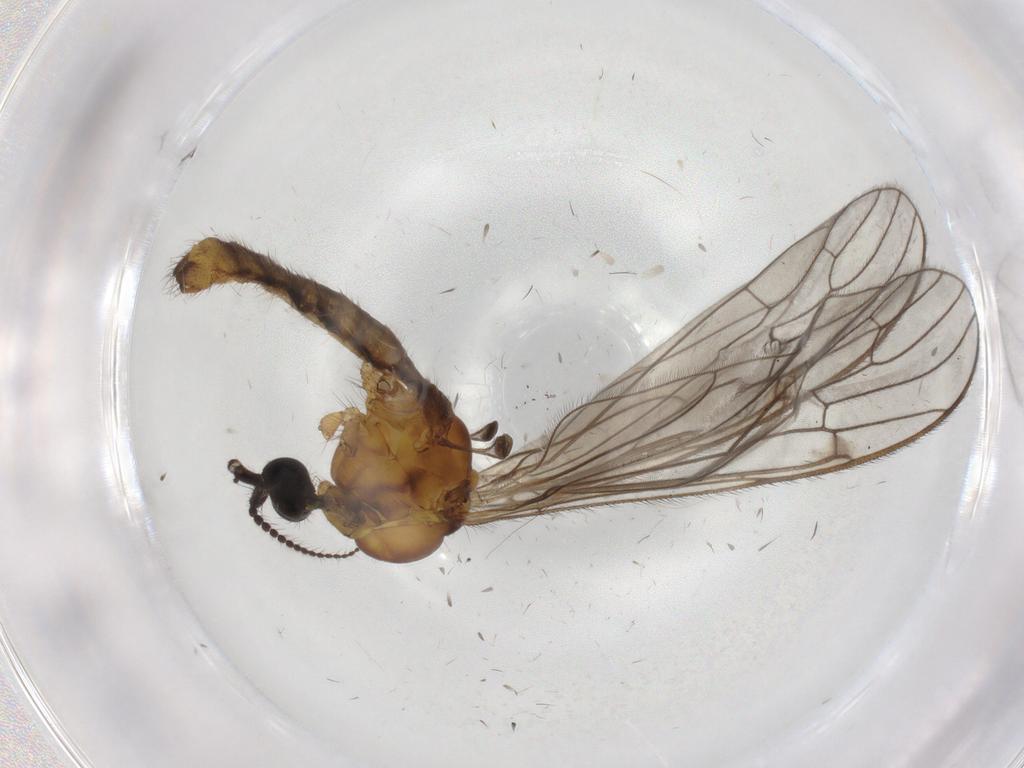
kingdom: Animalia
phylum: Arthropoda
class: Insecta
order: Diptera
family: Limoniidae
